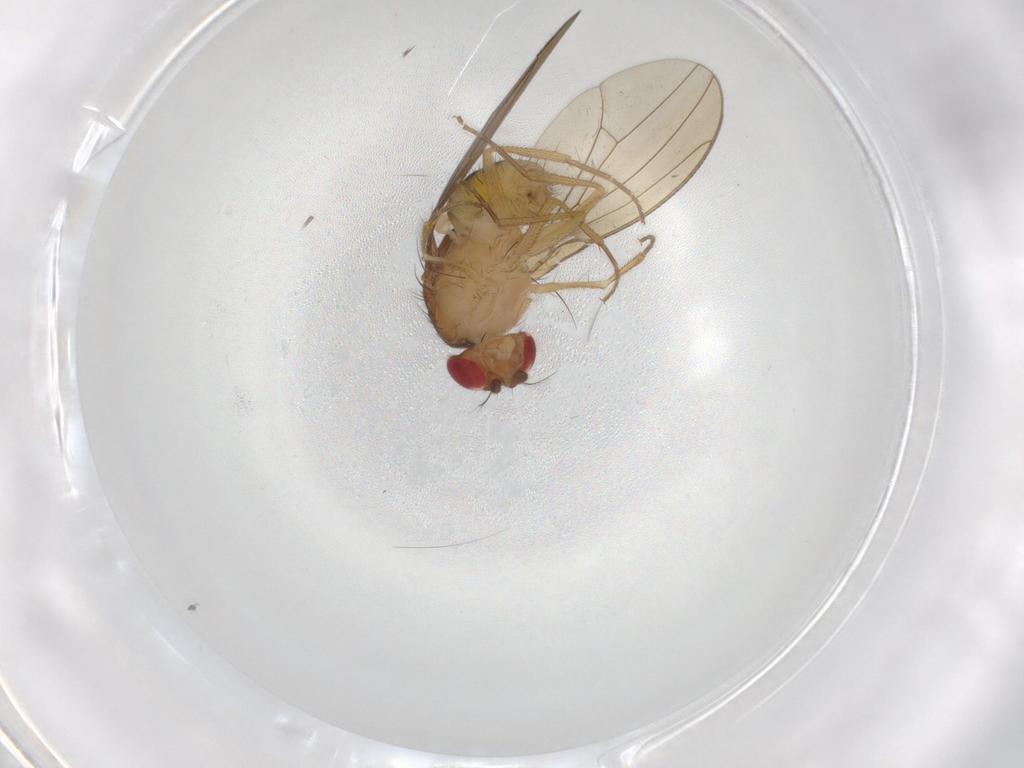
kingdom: Animalia
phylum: Arthropoda
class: Insecta
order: Diptera
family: Drosophilidae
